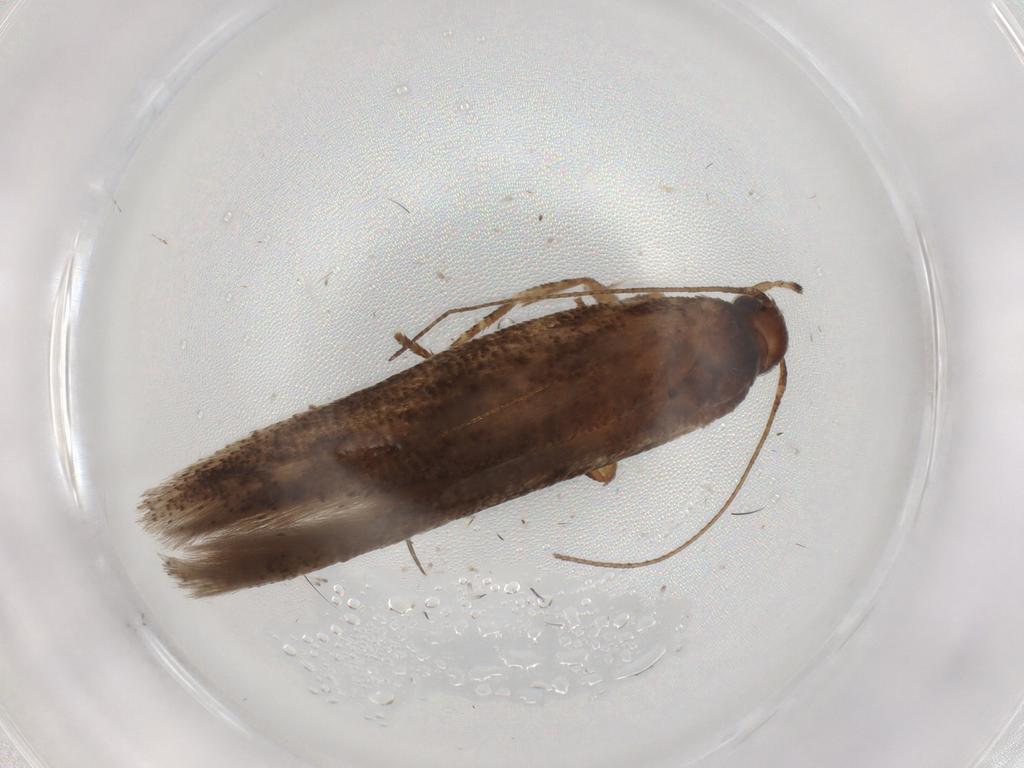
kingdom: Animalia
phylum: Arthropoda
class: Insecta
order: Lepidoptera
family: Gelechiidae
